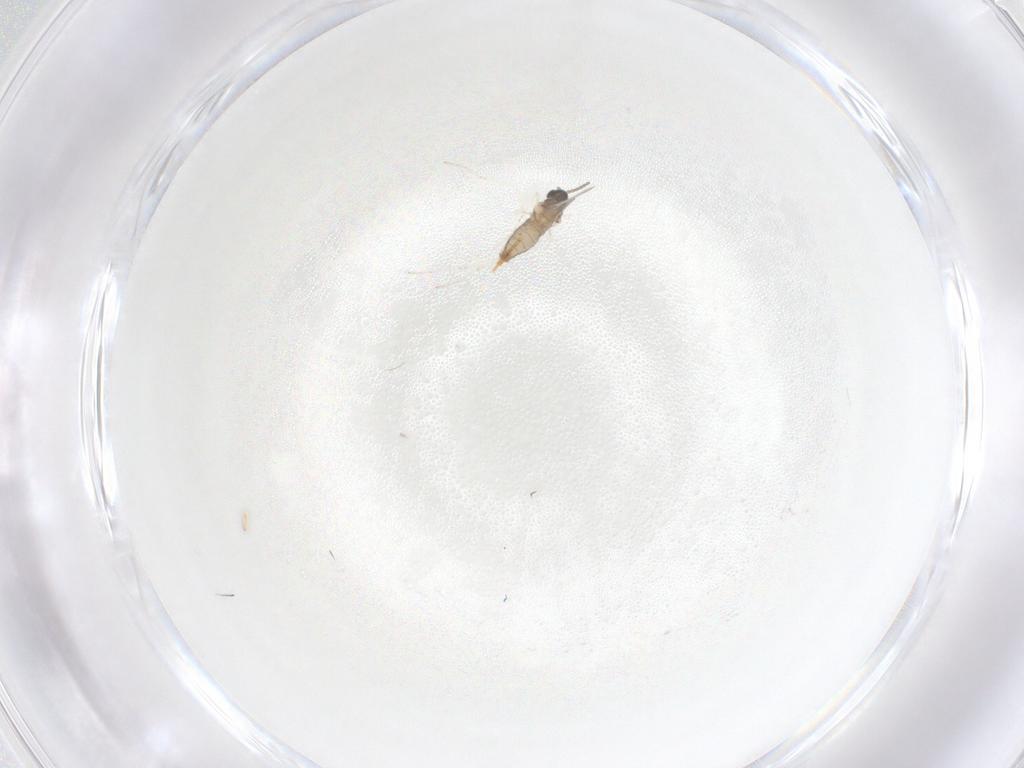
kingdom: Animalia
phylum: Arthropoda
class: Insecta
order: Diptera
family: Cecidomyiidae
